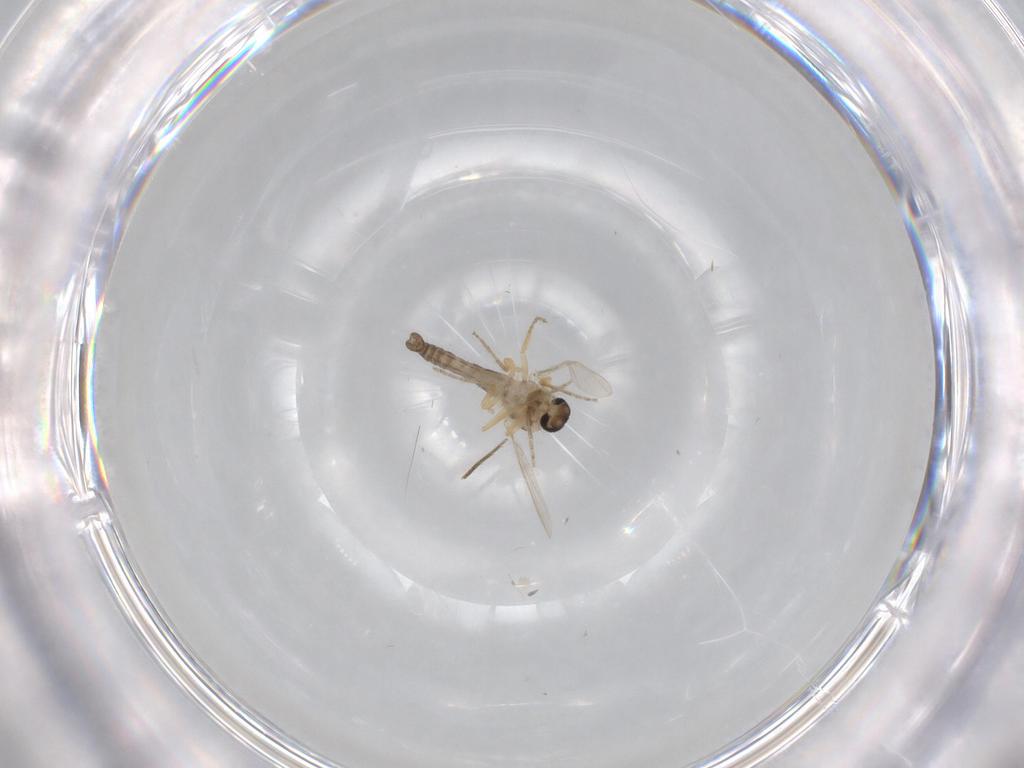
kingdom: Animalia
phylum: Arthropoda
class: Insecta
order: Diptera
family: Ceratopogonidae
